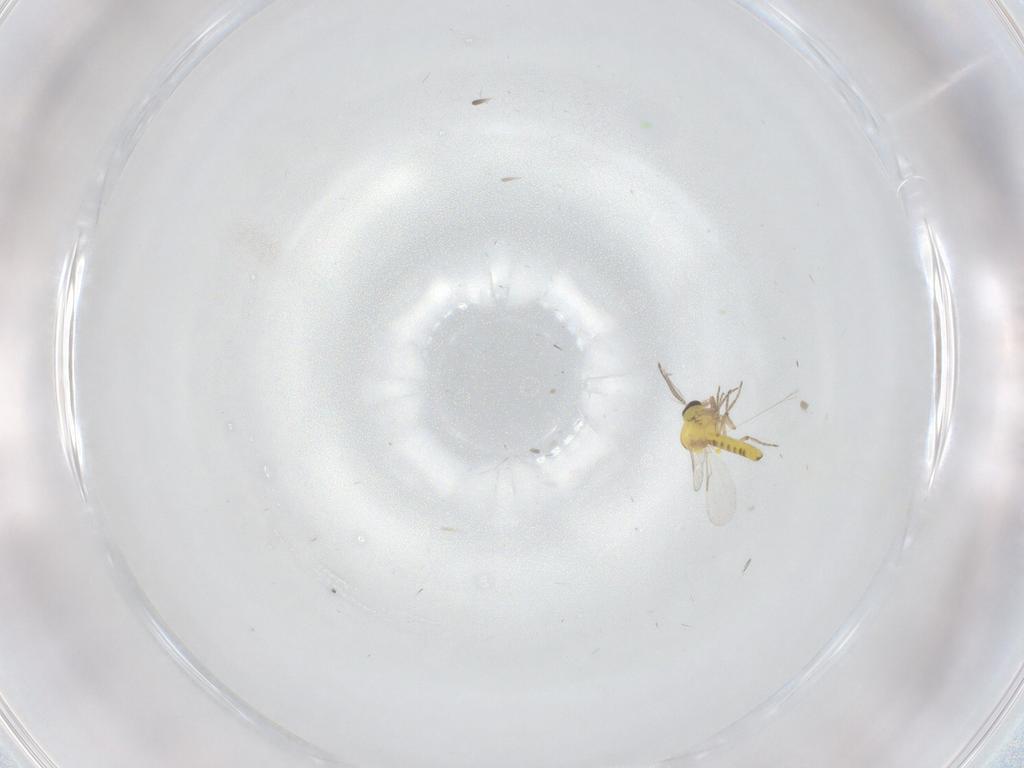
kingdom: Animalia
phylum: Arthropoda
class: Insecta
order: Diptera
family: Ceratopogonidae
